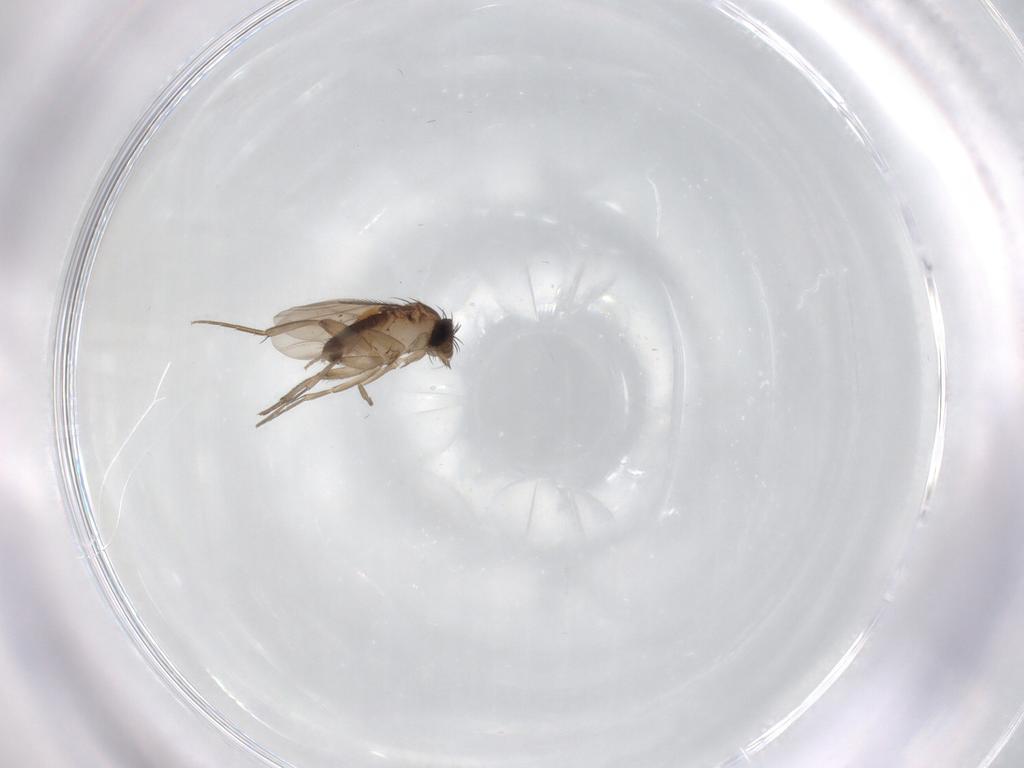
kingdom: Animalia
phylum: Arthropoda
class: Insecta
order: Diptera
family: Phoridae
